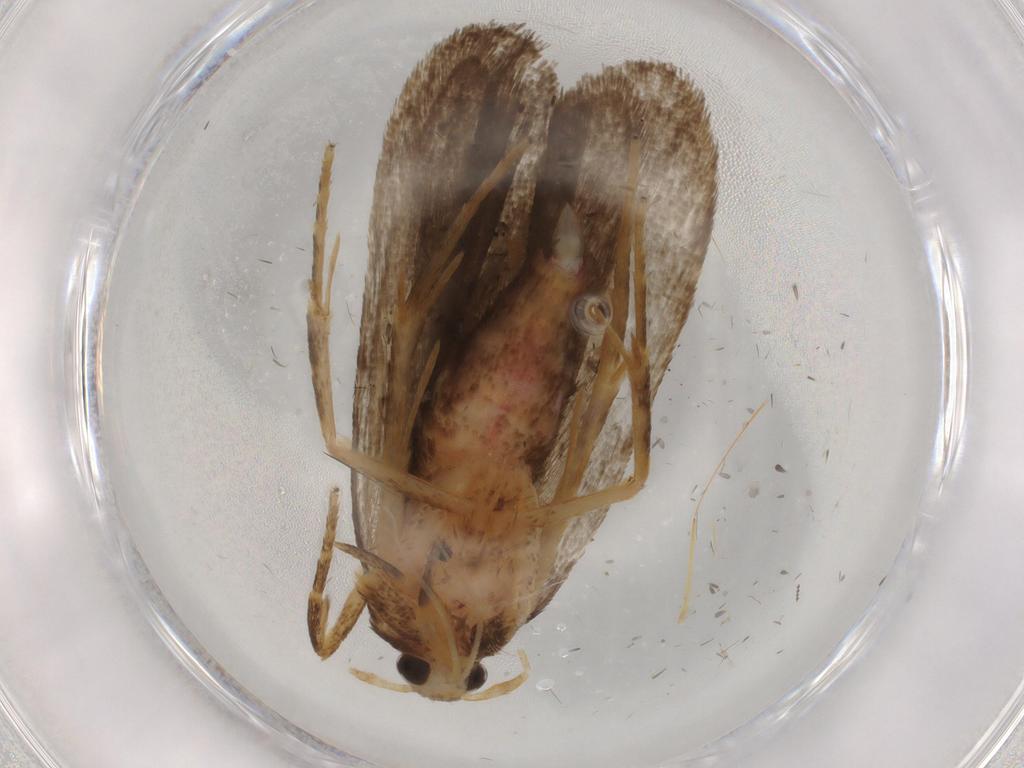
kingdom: Animalia
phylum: Arthropoda
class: Insecta
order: Lepidoptera
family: Autostichidae
